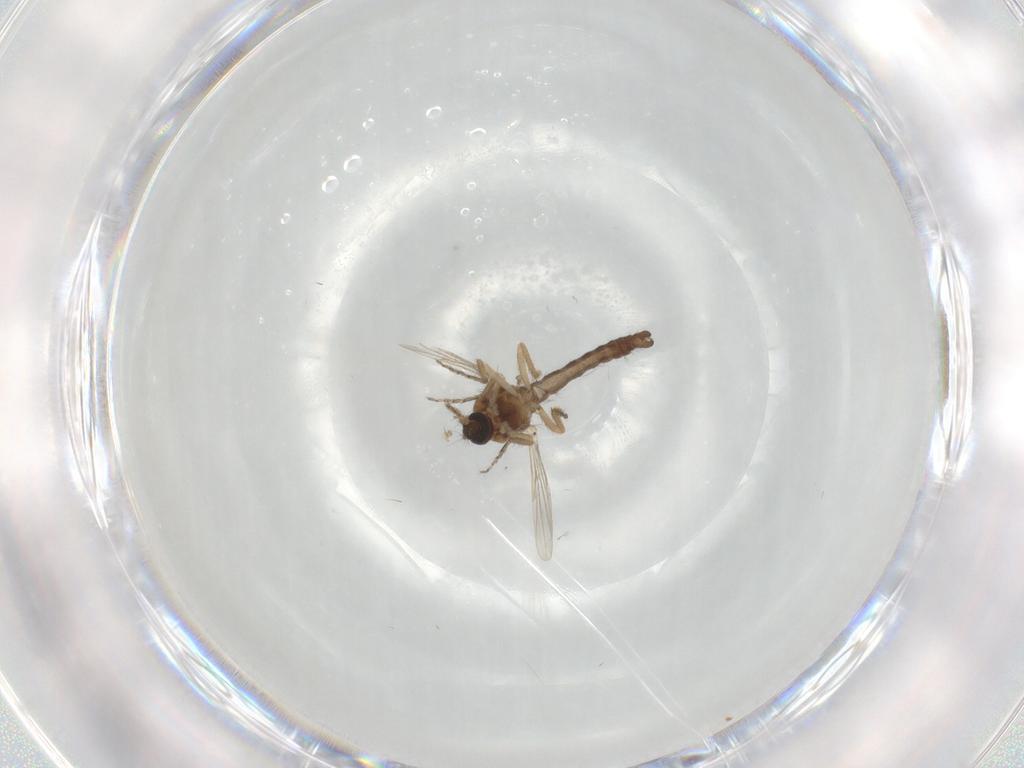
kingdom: Animalia
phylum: Arthropoda
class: Insecta
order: Diptera
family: Ceratopogonidae
